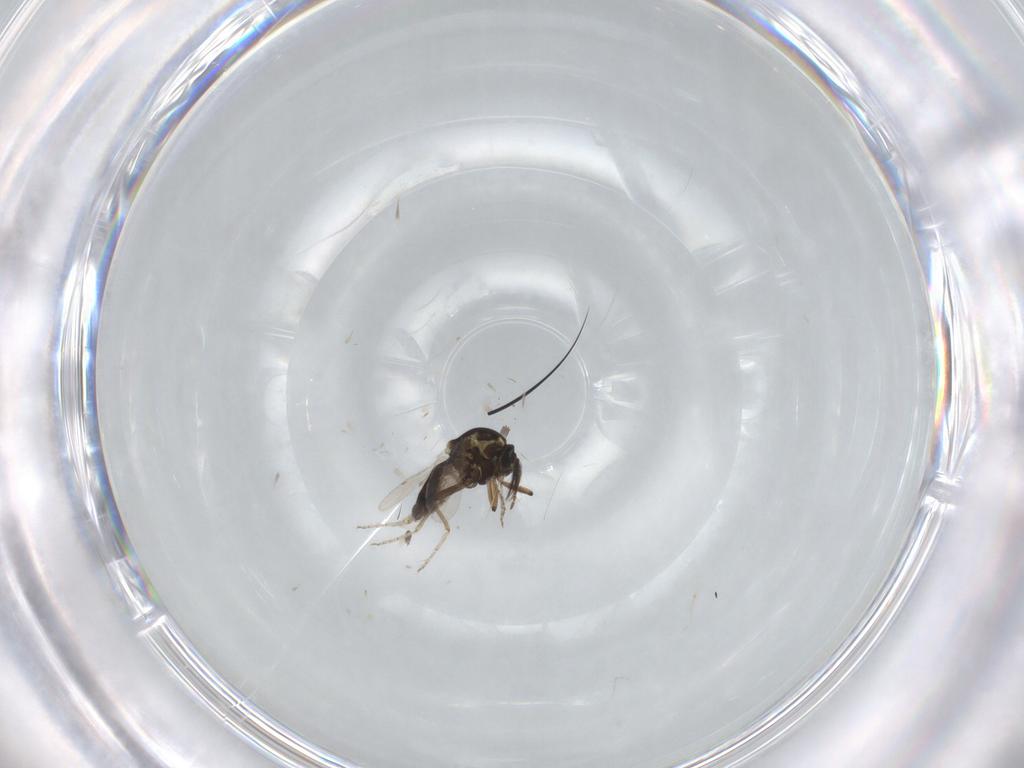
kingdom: Animalia
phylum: Arthropoda
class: Insecta
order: Diptera
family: Ceratopogonidae
